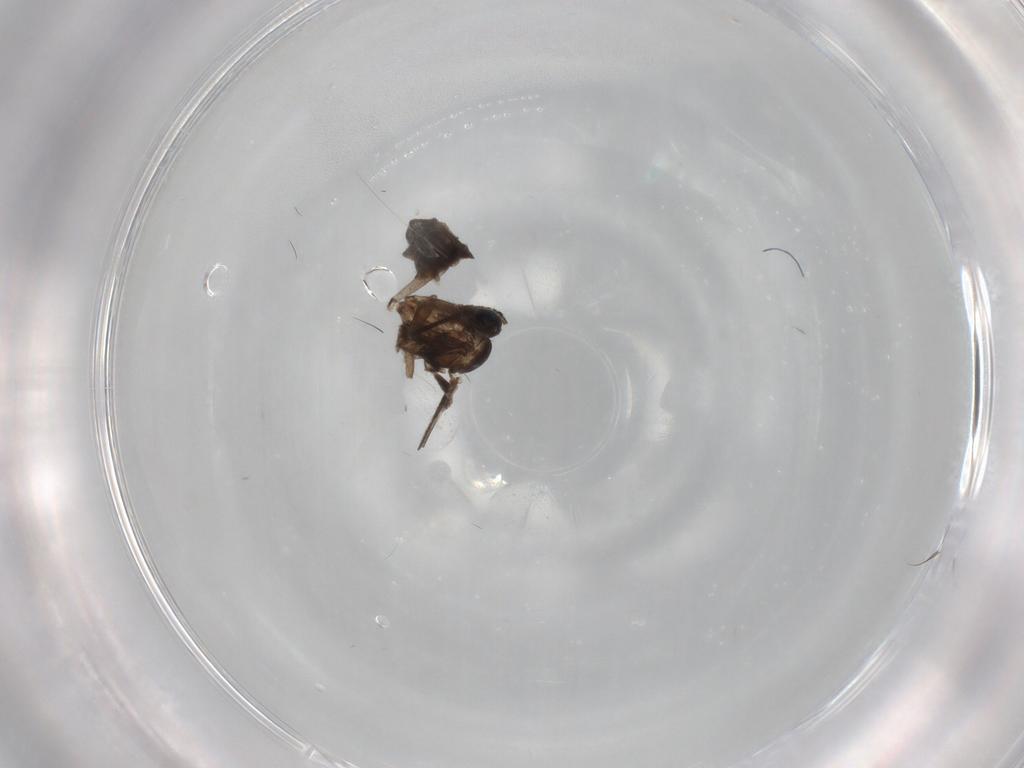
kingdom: Animalia
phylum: Arthropoda
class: Insecta
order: Diptera
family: Sciaridae
